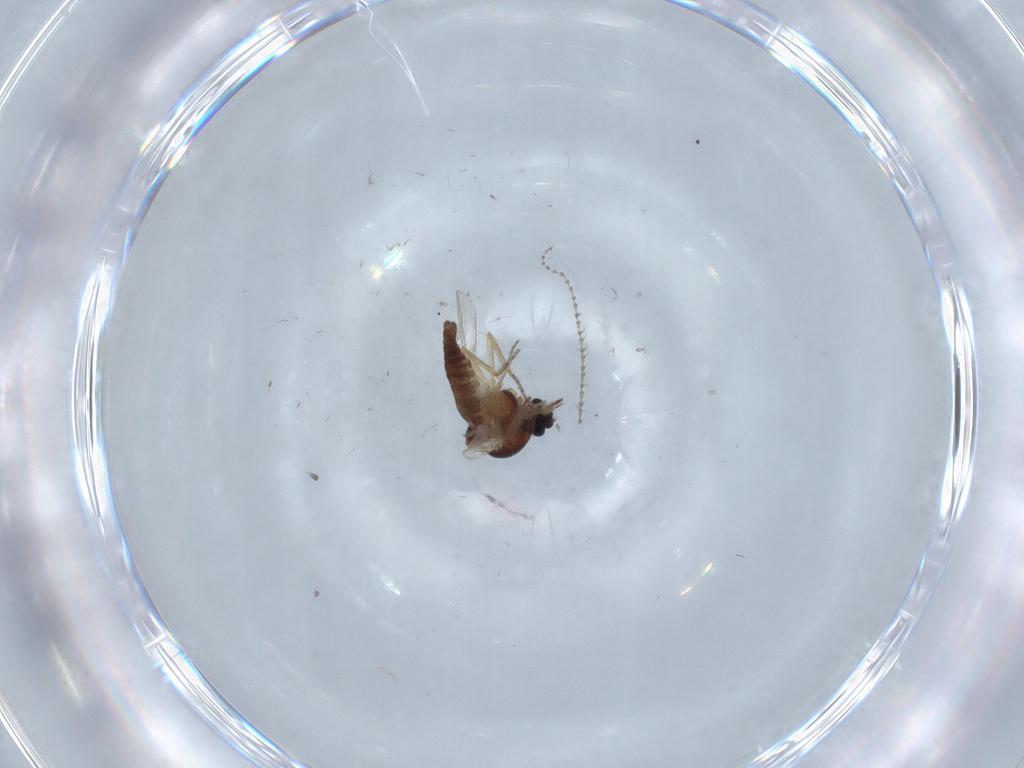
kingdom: Animalia
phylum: Arthropoda
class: Insecta
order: Diptera
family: Ceratopogonidae
